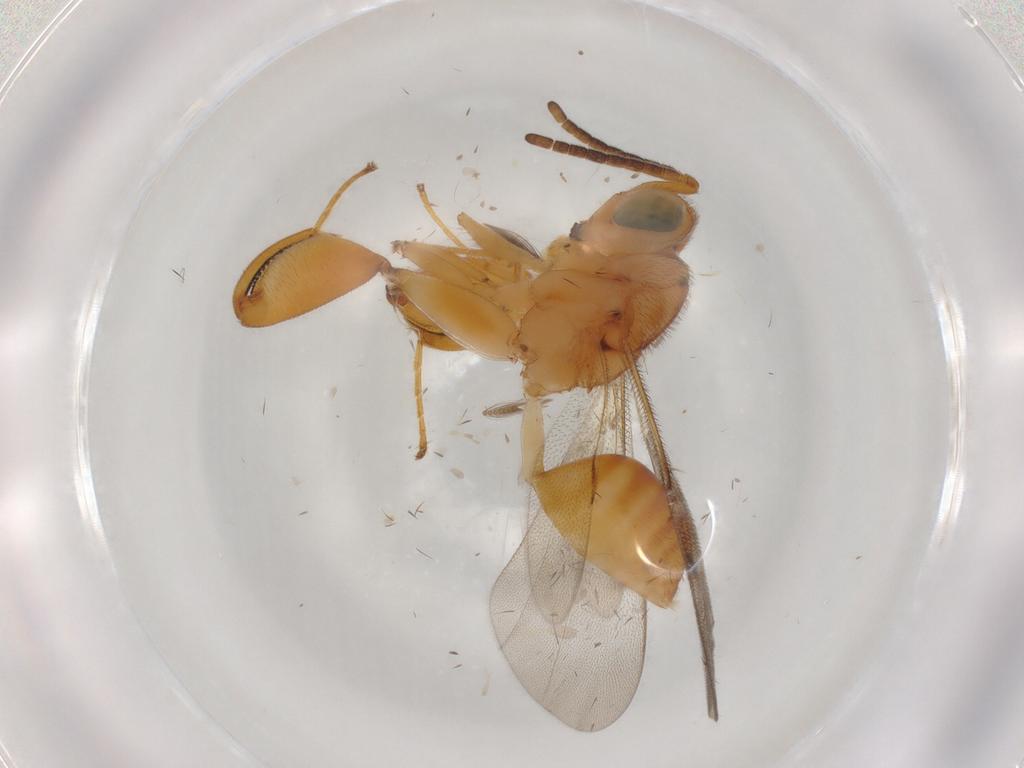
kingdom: Animalia
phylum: Arthropoda
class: Insecta
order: Hymenoptera
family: Chalcididae
